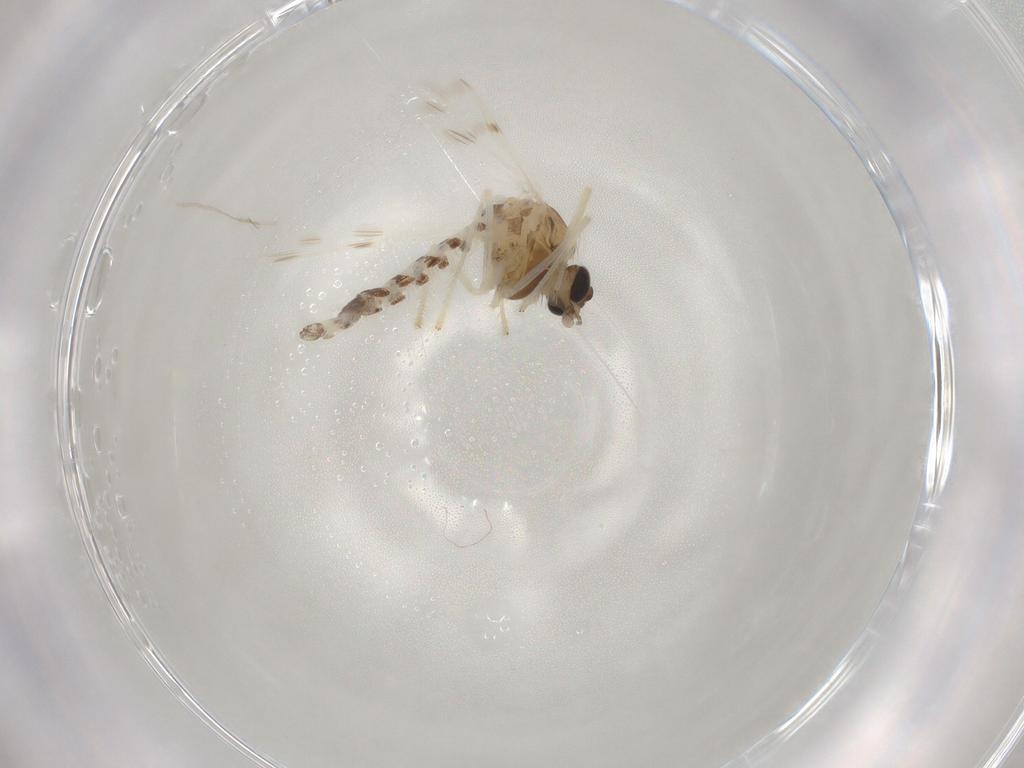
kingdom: Animalia
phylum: Arthropoda
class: Insecta
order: Diptera
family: Chironomidae
